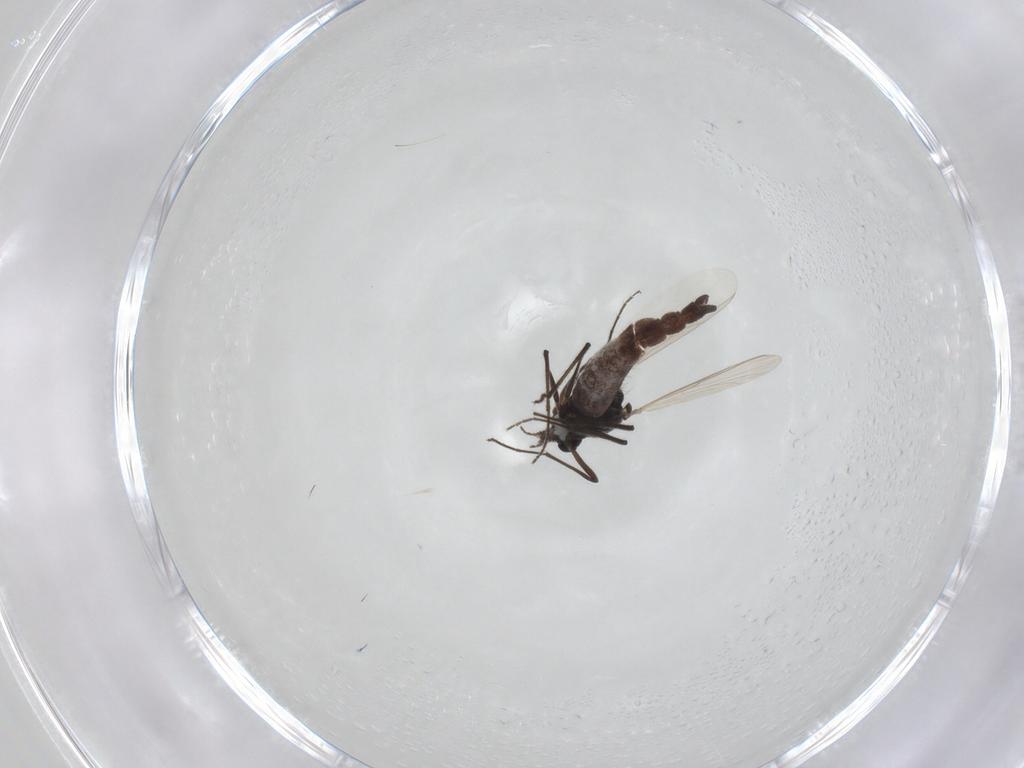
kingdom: Animalia
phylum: Arthropoda
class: Insecta
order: Diptera
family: Chironomidae
